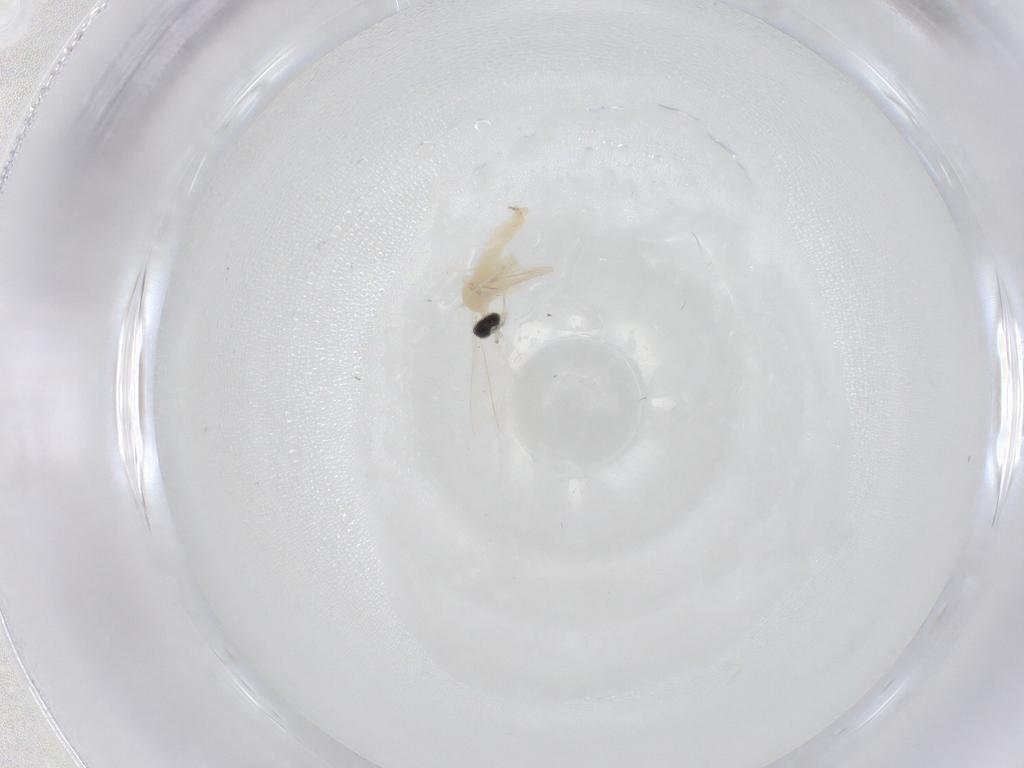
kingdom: Animalia
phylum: Arthropoda
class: Insecta
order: Diptera
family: Cecidomyiidae
